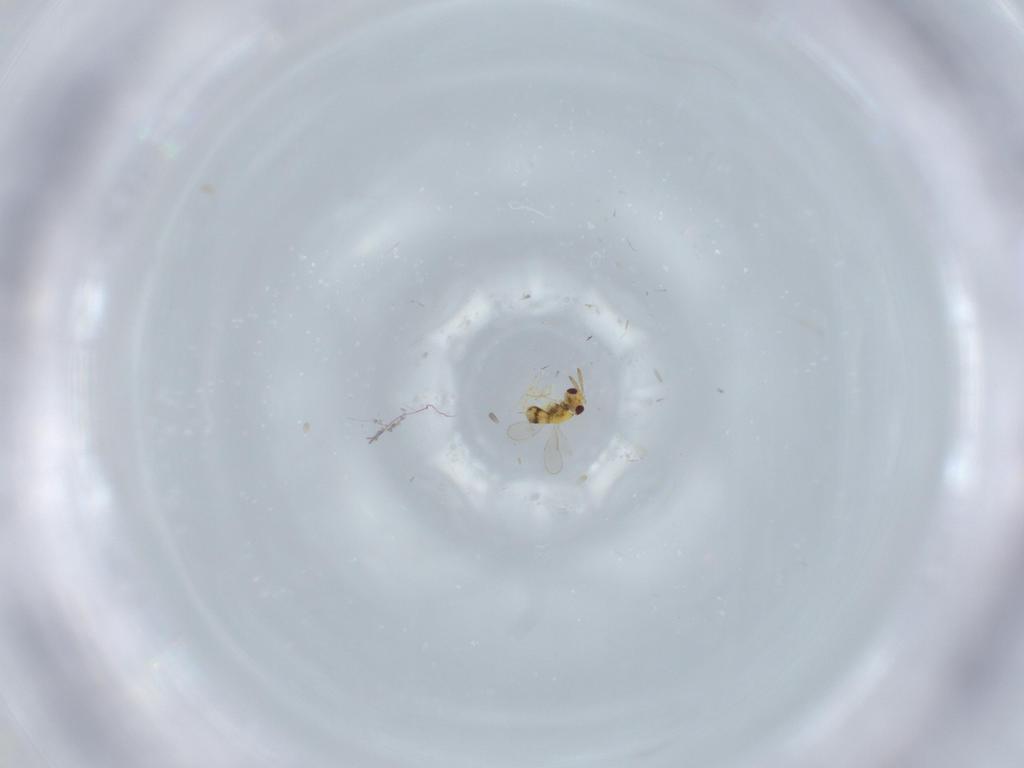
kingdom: Animalia
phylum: Arthropoda
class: Insecta
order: Hymenoptera
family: Aphelinidae
